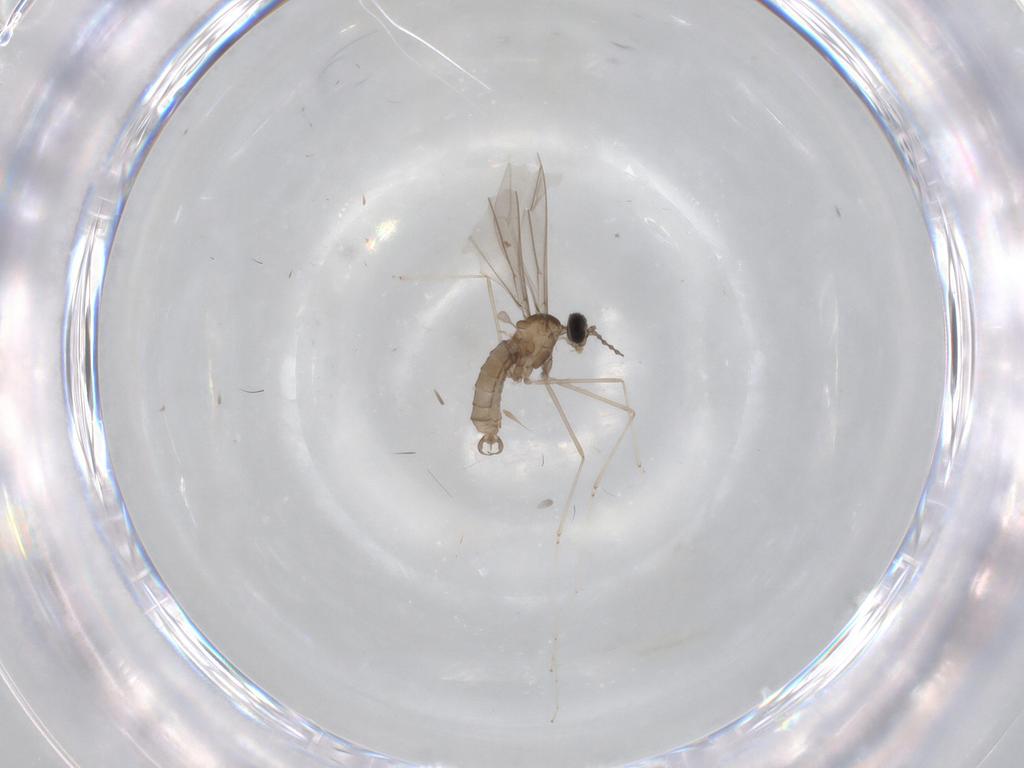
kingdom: Animalia
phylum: Arthropoda
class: Insecta
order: Diptera
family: Cecidomyiidae
